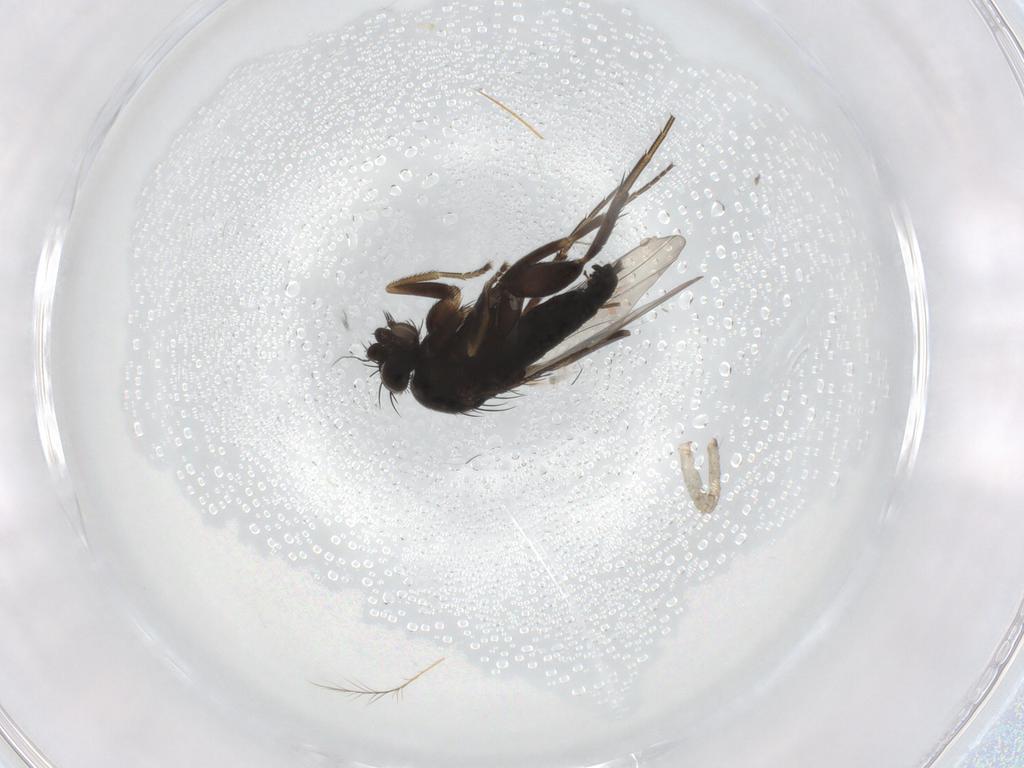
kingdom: Animalia
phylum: Arthropoda
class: Insecta
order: Diptera
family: Phoridae
